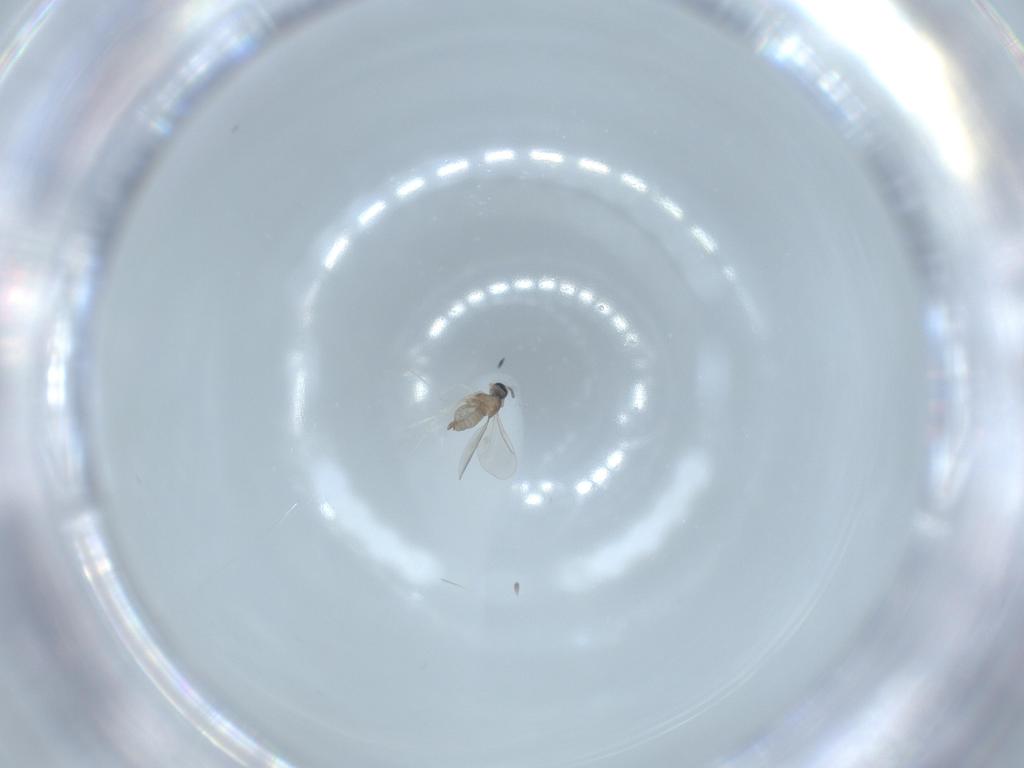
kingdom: Animalia
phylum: Arthropoda
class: Insecta
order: Diptera
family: Cecidomyiidae
